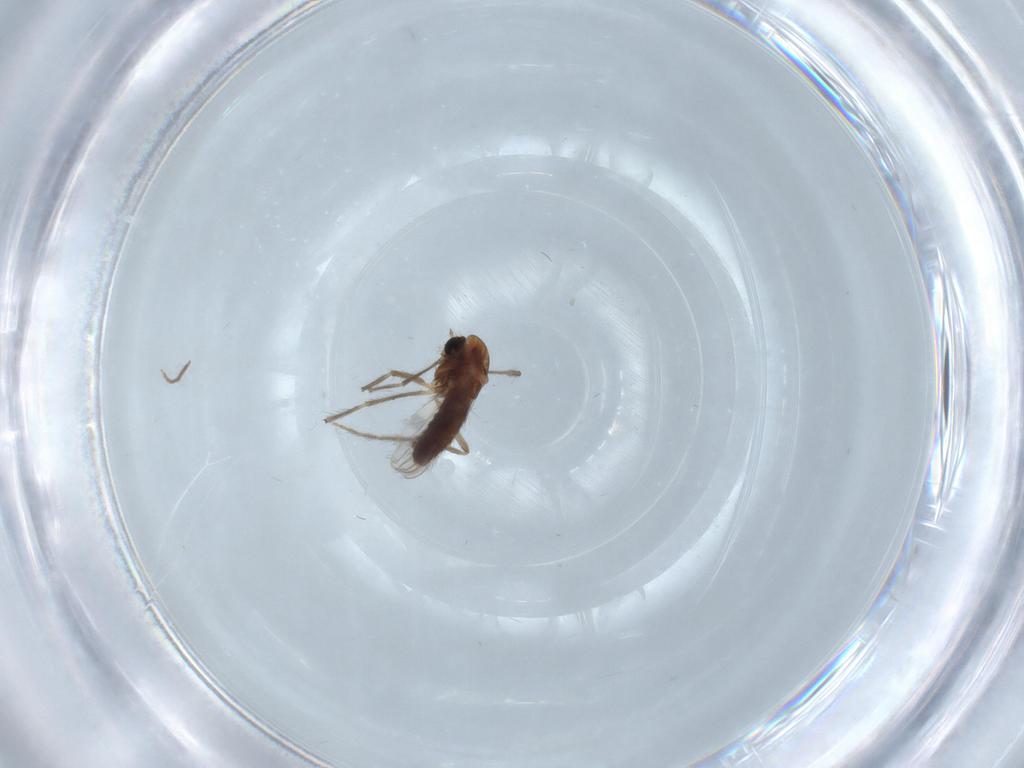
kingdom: Animalia
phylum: Arthropoda
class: Insecta
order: Diptera
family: Chironomidae
